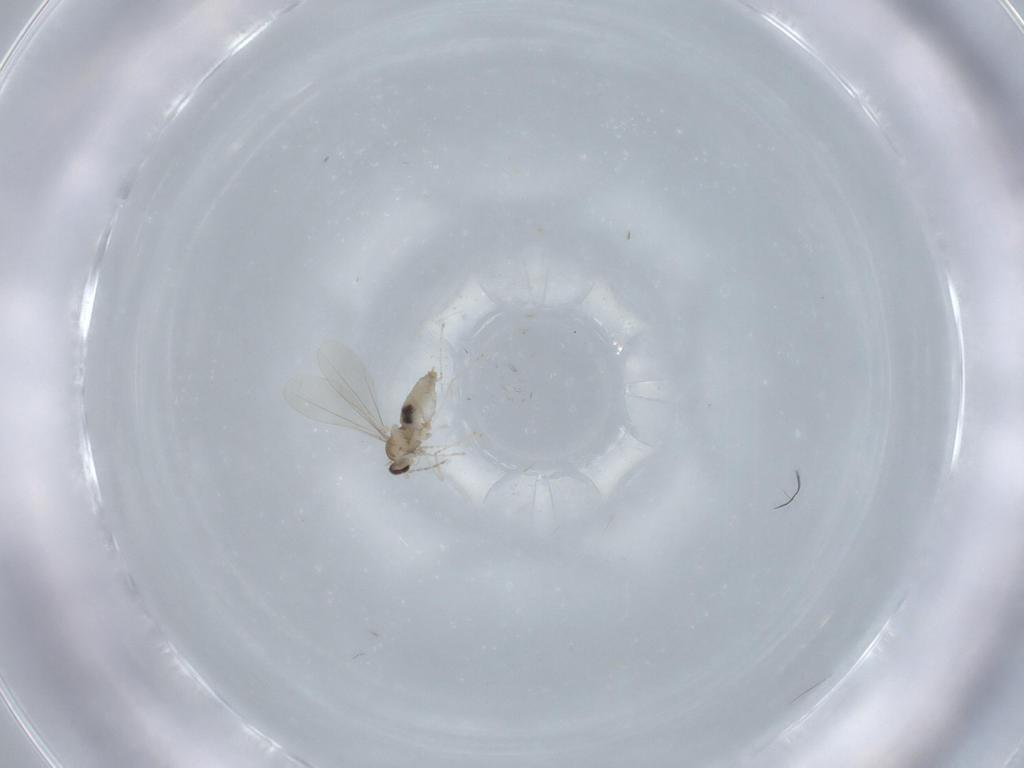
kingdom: Animalia
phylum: Arthropoda
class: Insecta
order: Diptera
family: Cecidomyiidae
